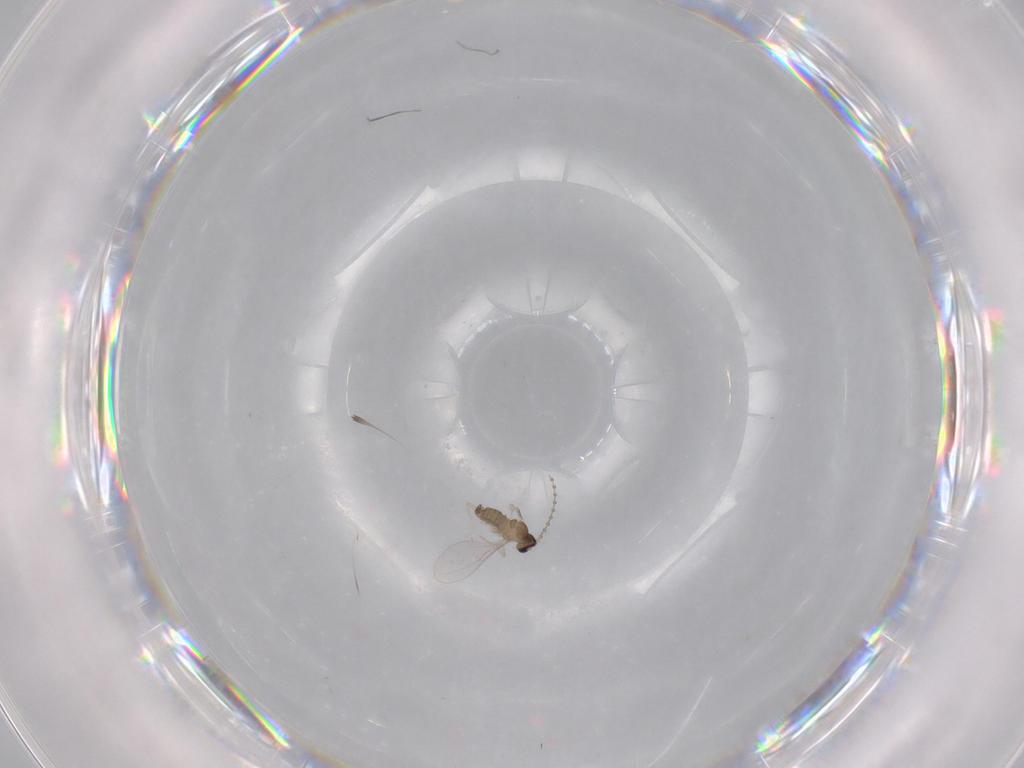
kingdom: Animalia
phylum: Arthropoda
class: Insecta
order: Diptera
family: Cecidomyiidae
